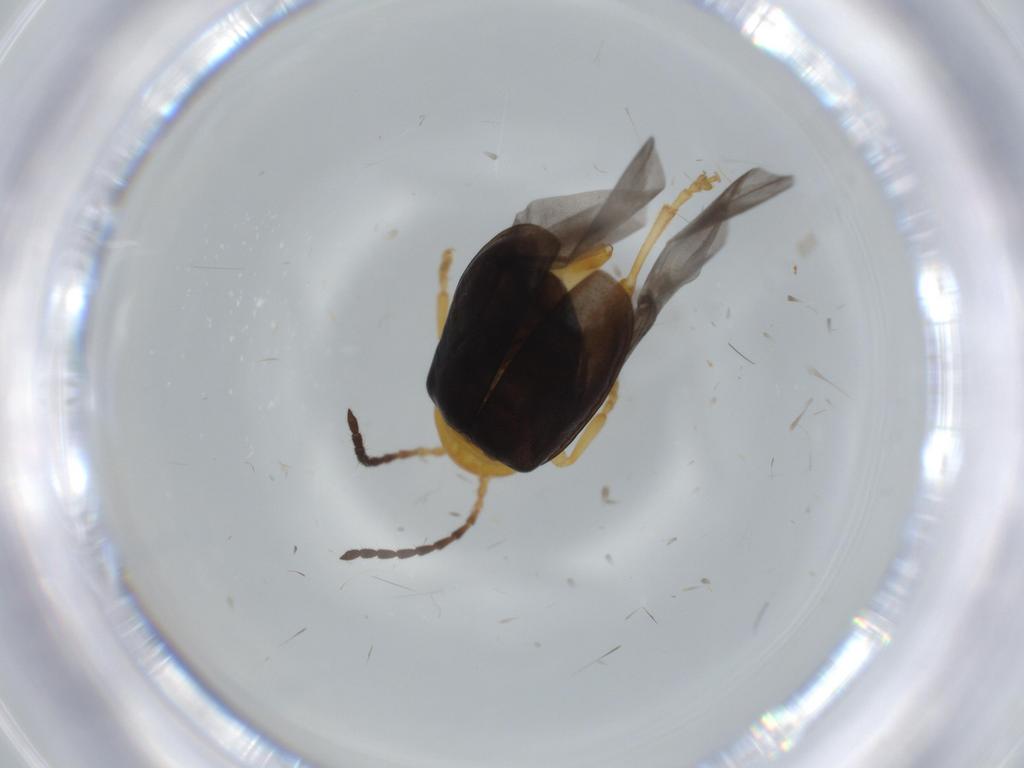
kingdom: Animalia
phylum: Arthropoda
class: Insecta
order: Coleoptera
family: Chrysomelidae
